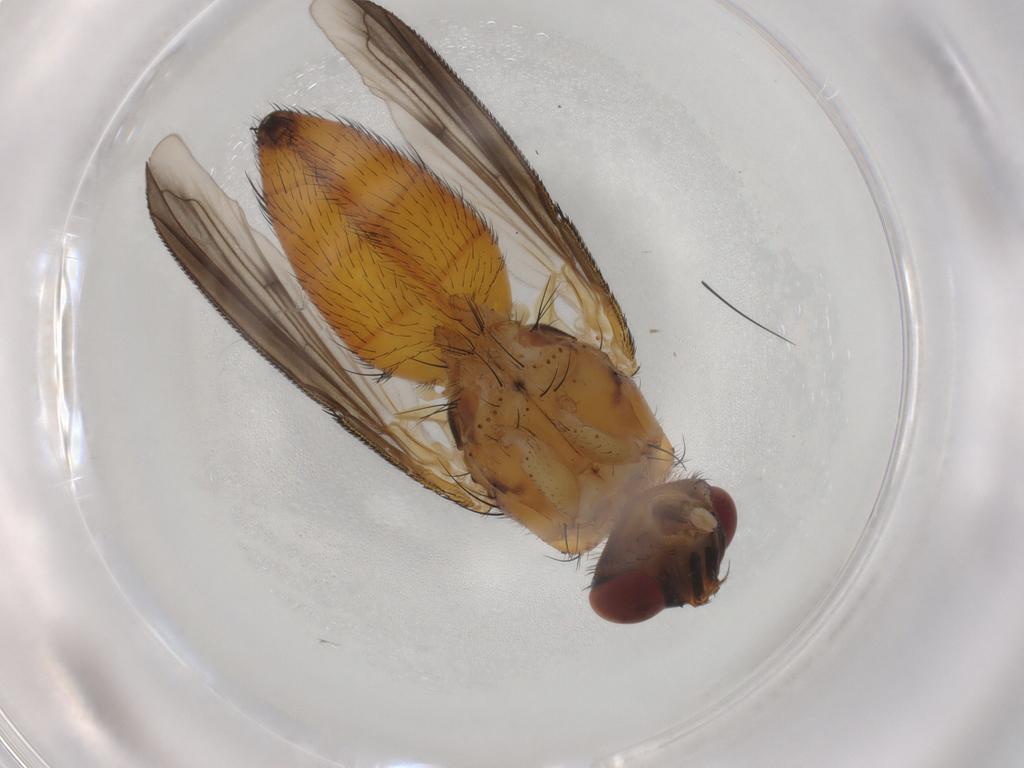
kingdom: Animalia
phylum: Arthropoda
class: Insecta
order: Diptera
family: Tachinidae
